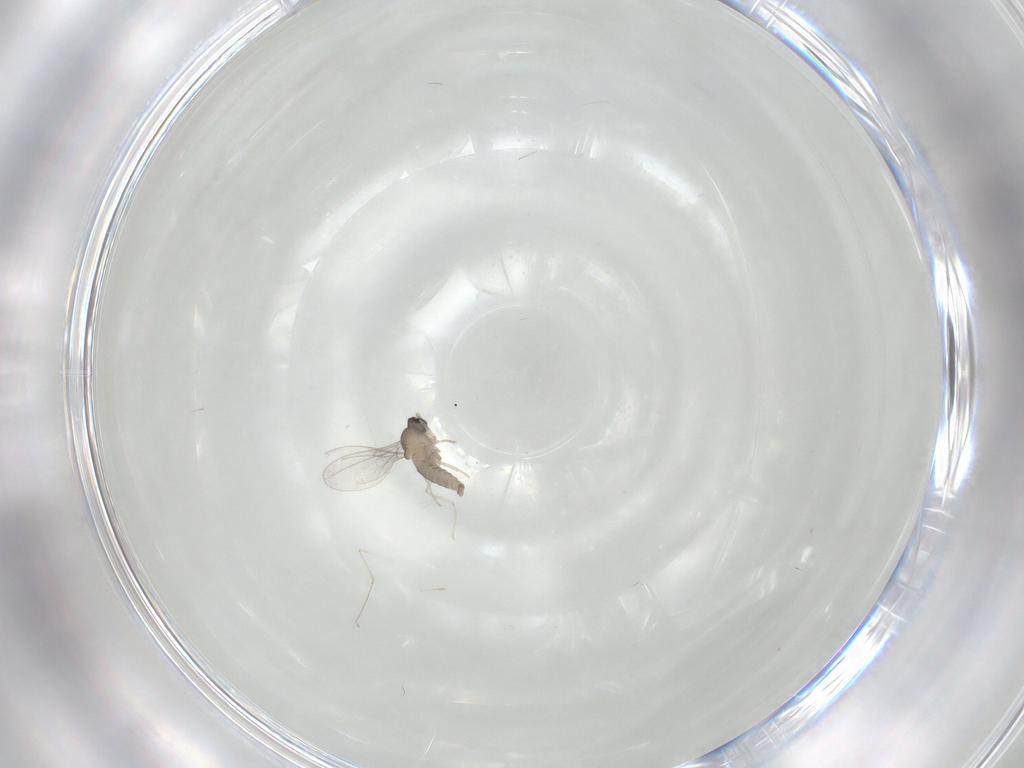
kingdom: Animalia
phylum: Arthropoda
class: Insecta
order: Diptera
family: Cecidomyiidae
